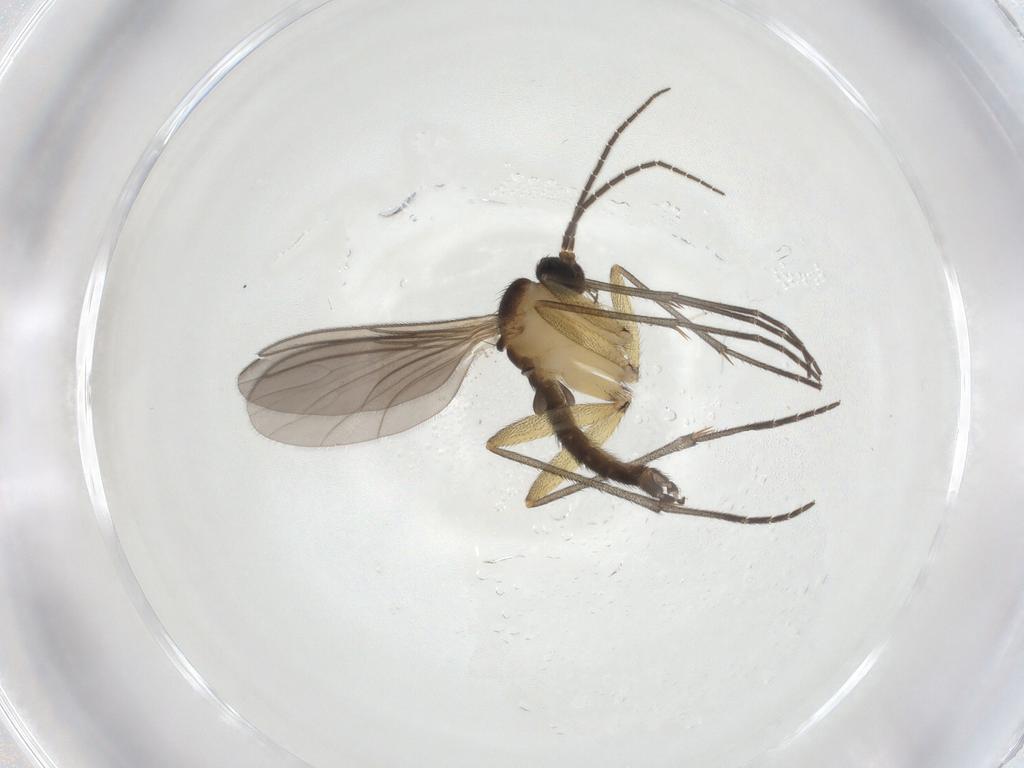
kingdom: Animalia
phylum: Arthropoda
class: Insecta
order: Diptera
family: Sciaridae
